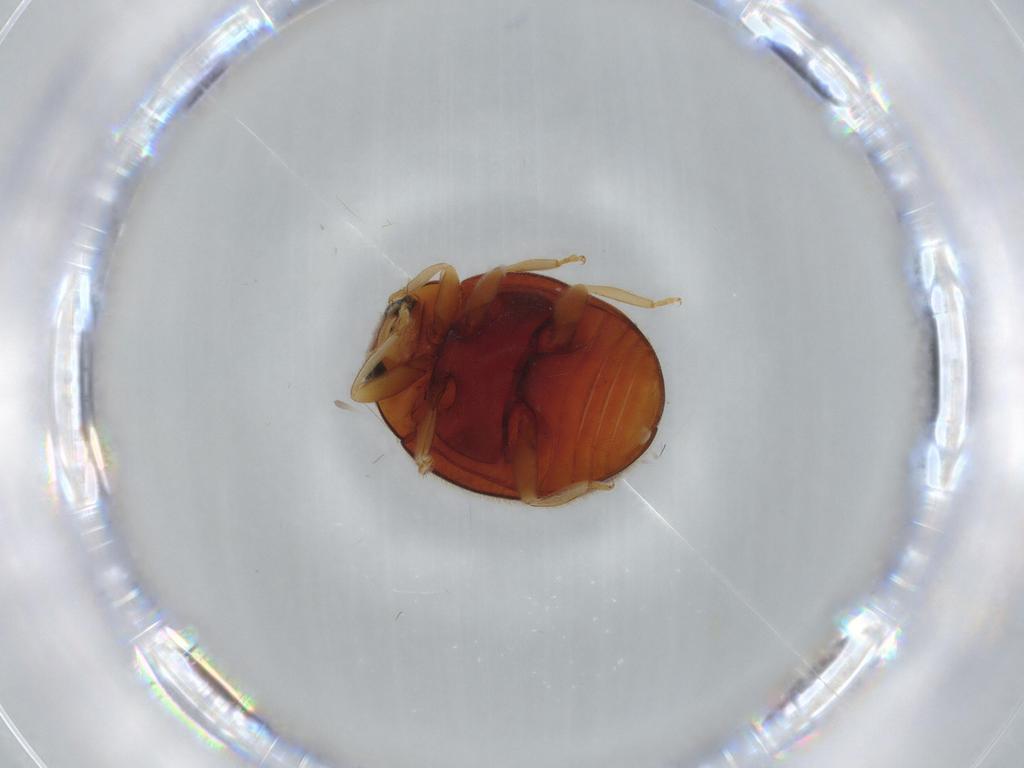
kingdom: Animalia
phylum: Arthropoda
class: Insecta
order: Coleoptera
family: Coccinellidae
